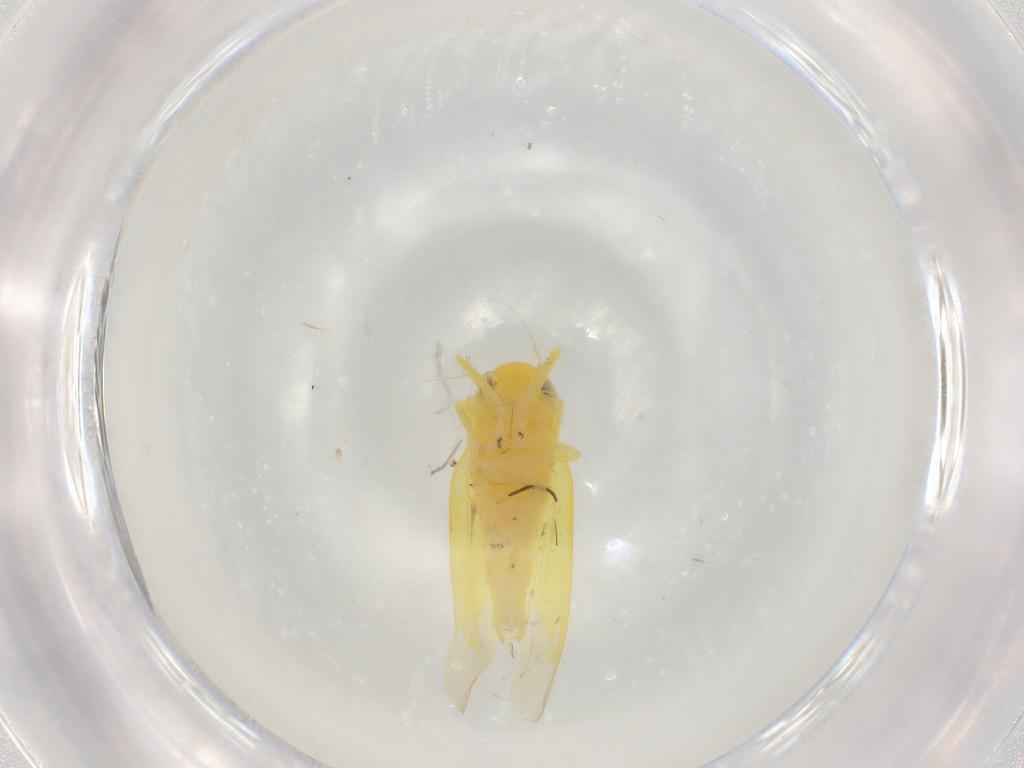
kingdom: Animalia
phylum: Arthropoda
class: Insecta
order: Hemiptera
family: Cicadellidae
